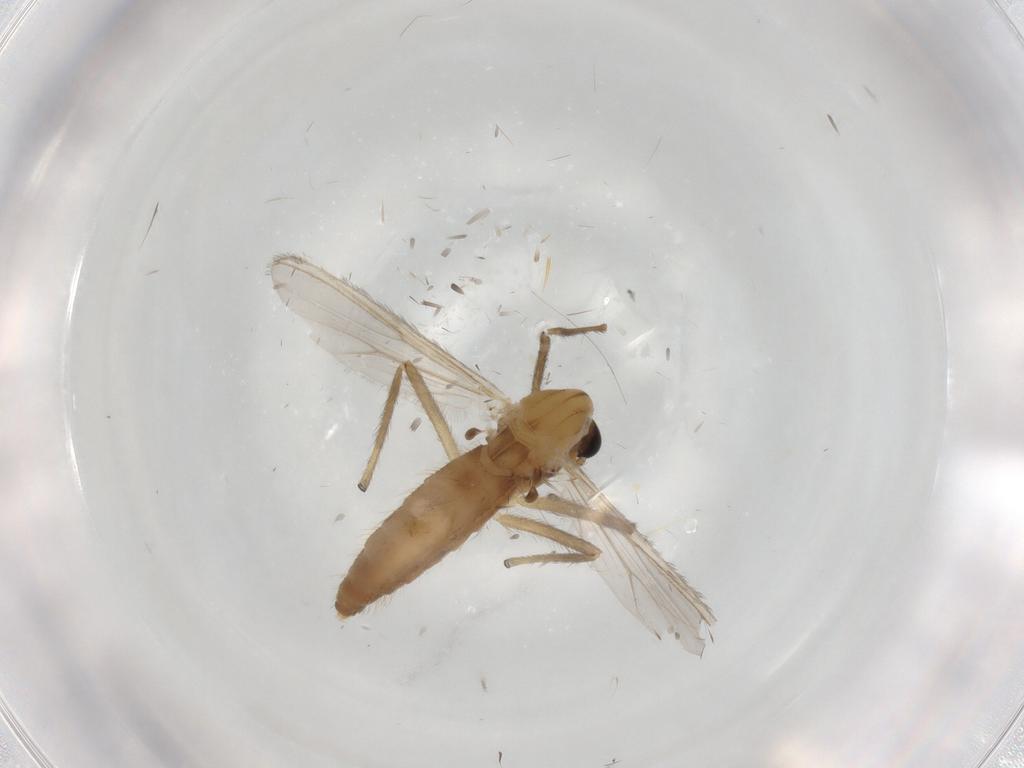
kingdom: Animalia
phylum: Arthropoda
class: Insecta
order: Diptera
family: Chironomidae
